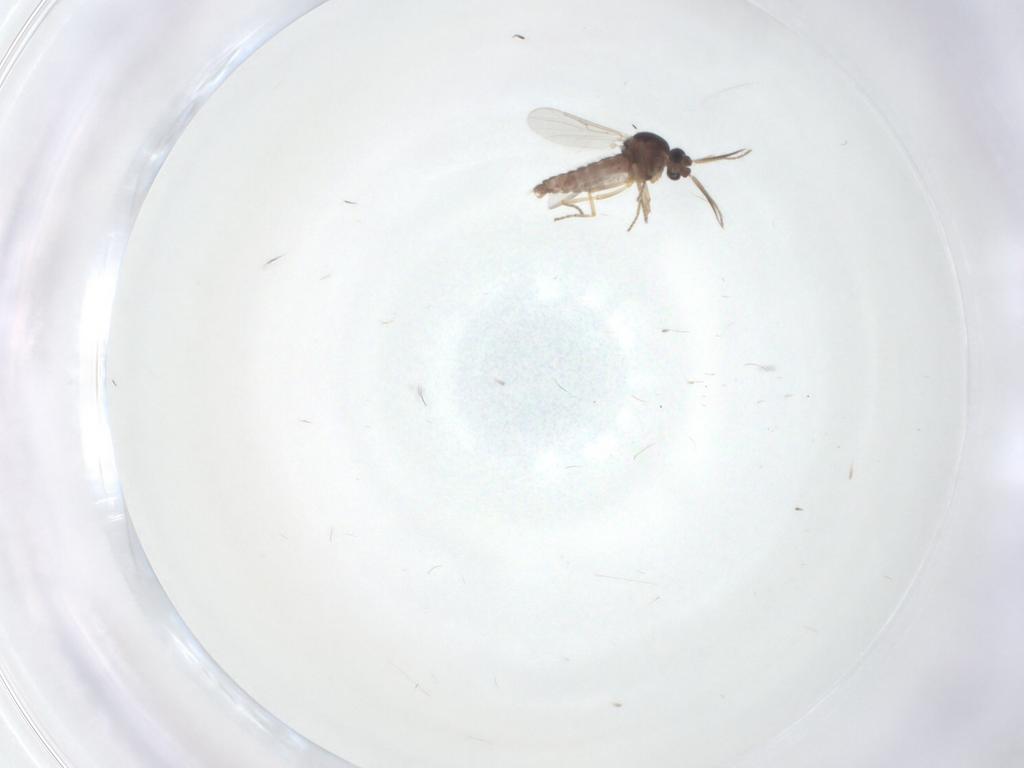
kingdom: Animalia
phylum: Arthropoda
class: Insecta
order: Diptera
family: Ceratopogonidae
